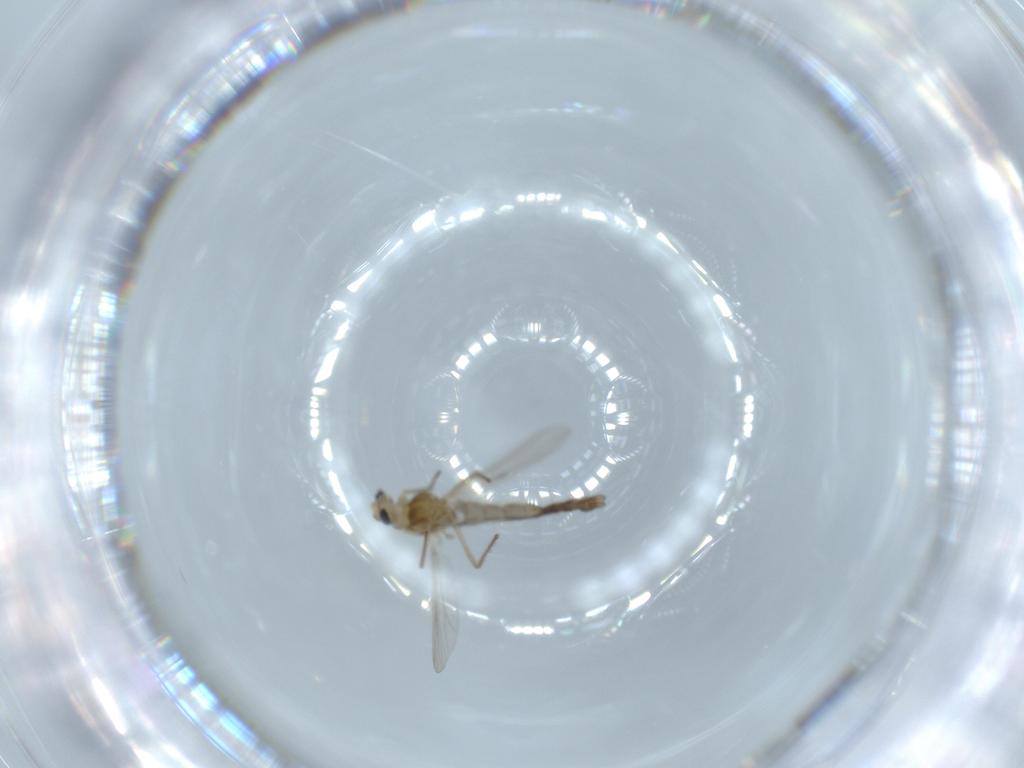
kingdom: Animalia
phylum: Arthropoda
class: Insecta
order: Diptera
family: Chironomidae
